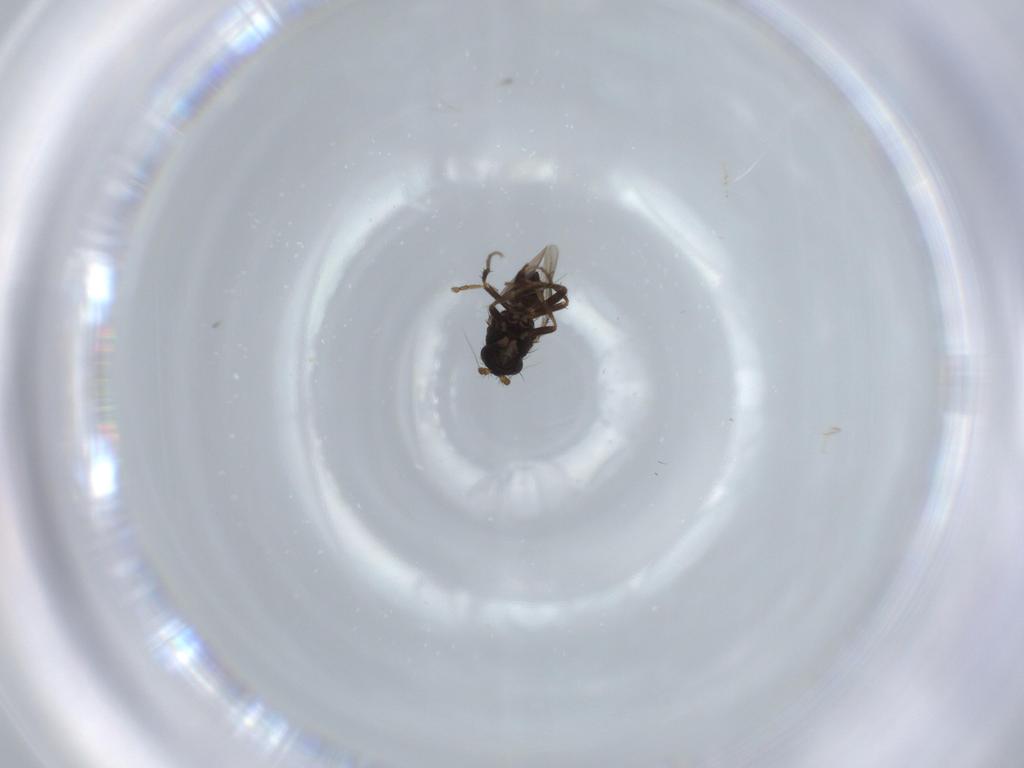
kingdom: Animalia
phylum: Arthropoda
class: Insecta
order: Diptera
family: Sphaeroceridae
